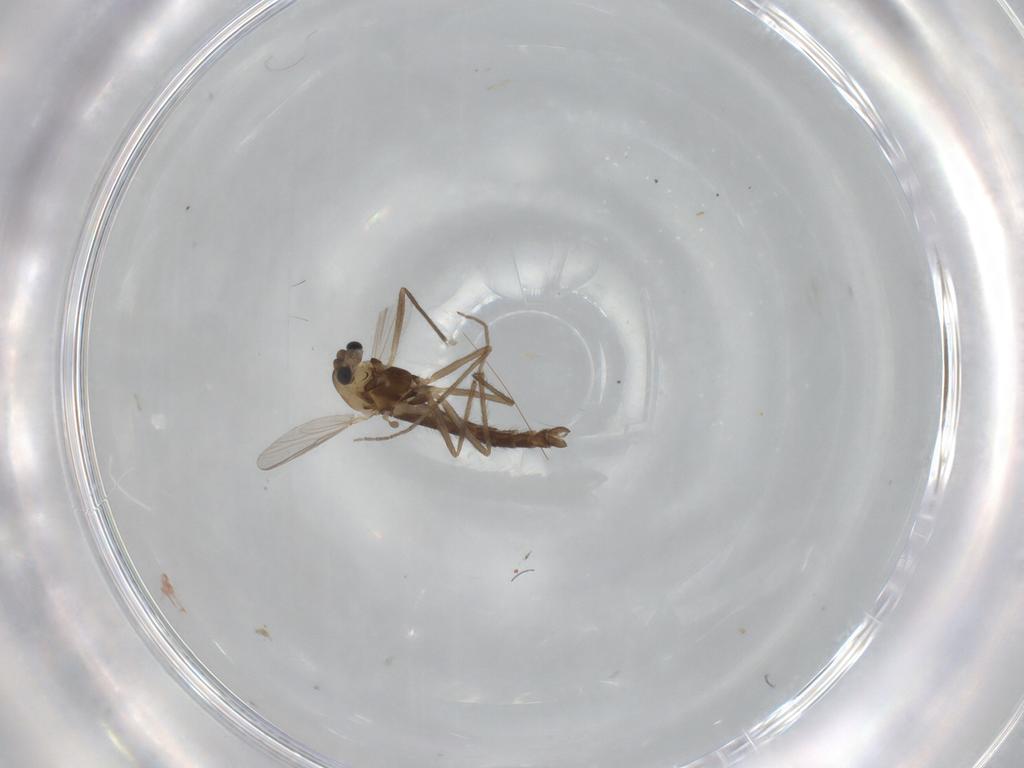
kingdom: Animalia
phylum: Arthropoda
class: Insecta
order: Diptera
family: Chironomidae
